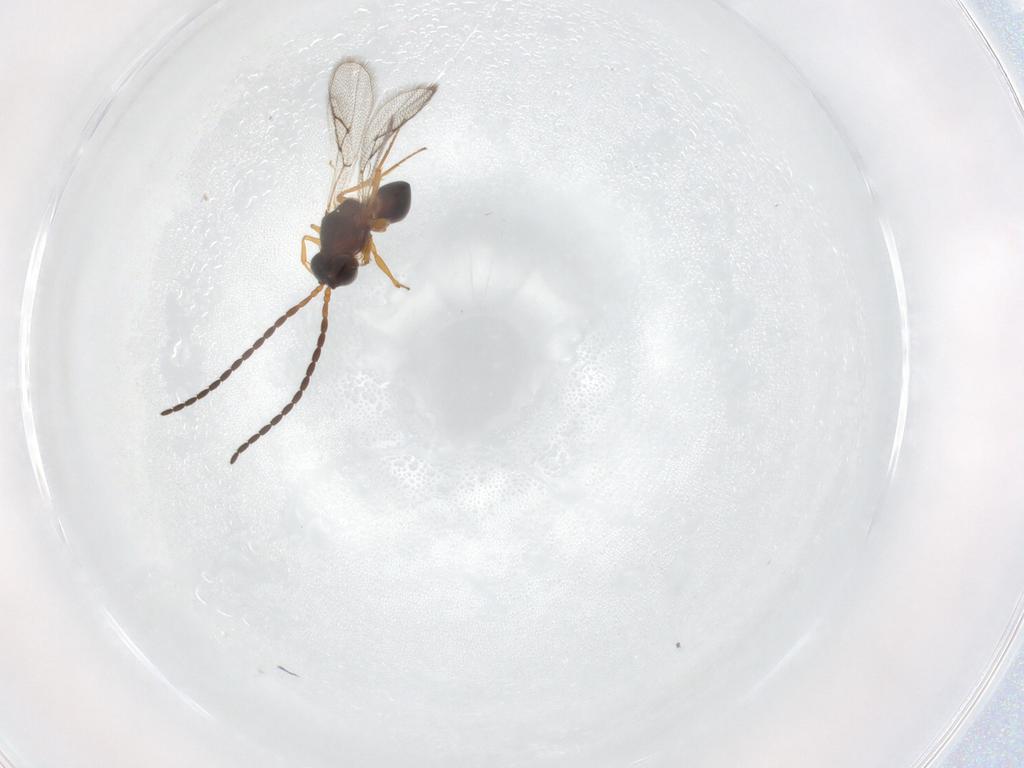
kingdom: Animalia
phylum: Arthropoda
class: Insecta
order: Hymenoptera
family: Figitidae
